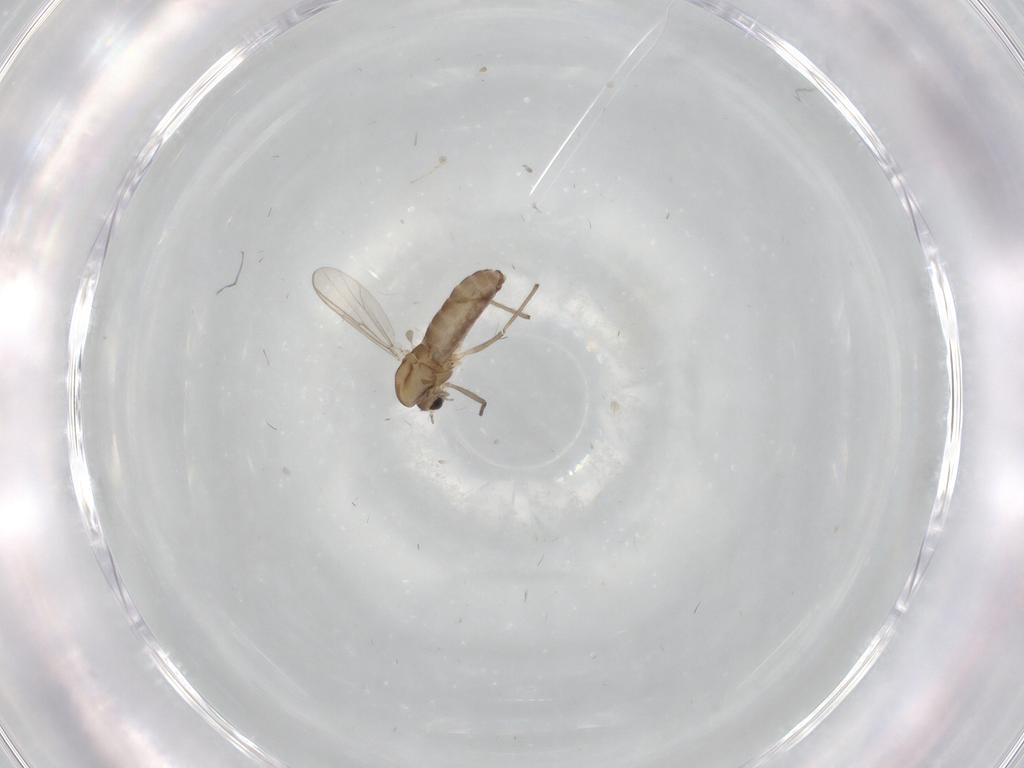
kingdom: Animalia
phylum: Arthropoda
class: Insecta
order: Diptera
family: Chironomidae
